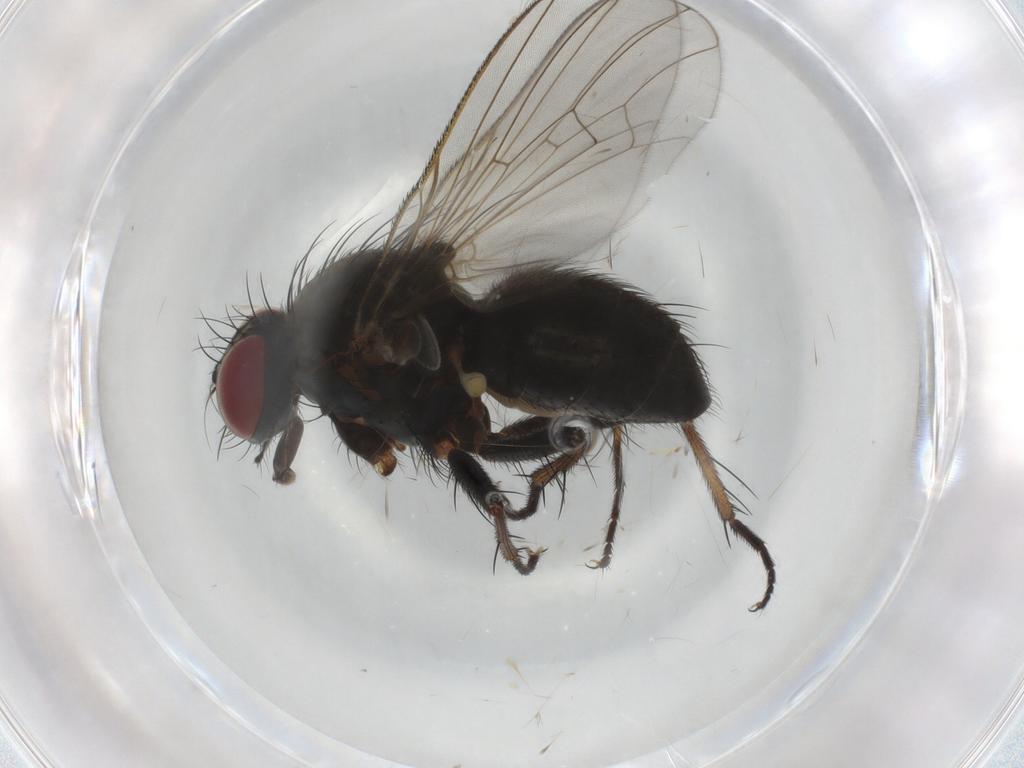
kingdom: Animalia
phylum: Arthropoda
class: Insecta
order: Diptera
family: Muscidae
